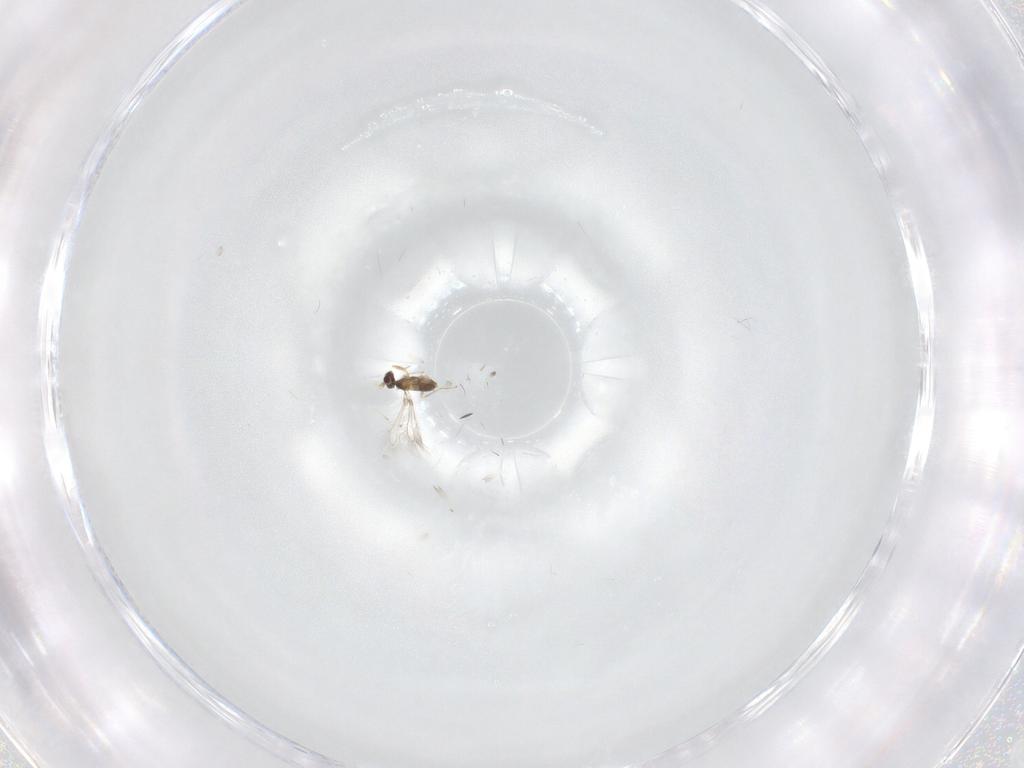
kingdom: Animalia
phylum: Arthropoda
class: Insecta
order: Hymenoptera
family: Mymaridae
